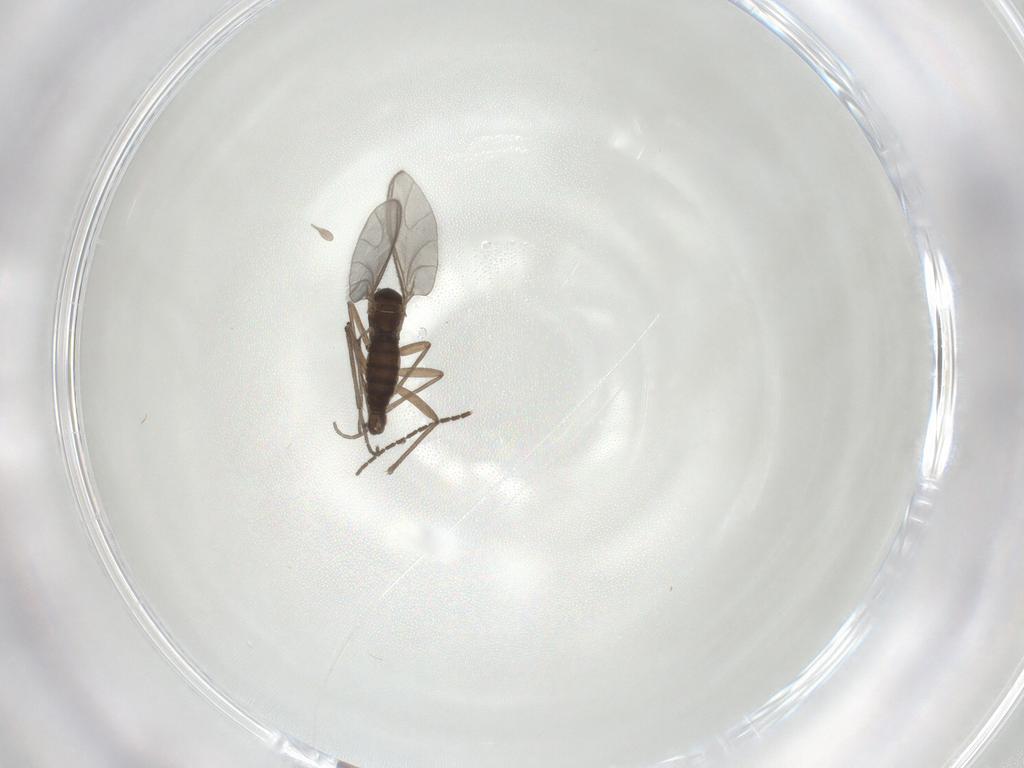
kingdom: Animalia
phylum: Arthropoda
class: Insecta
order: Diptera
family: Sciaridae
